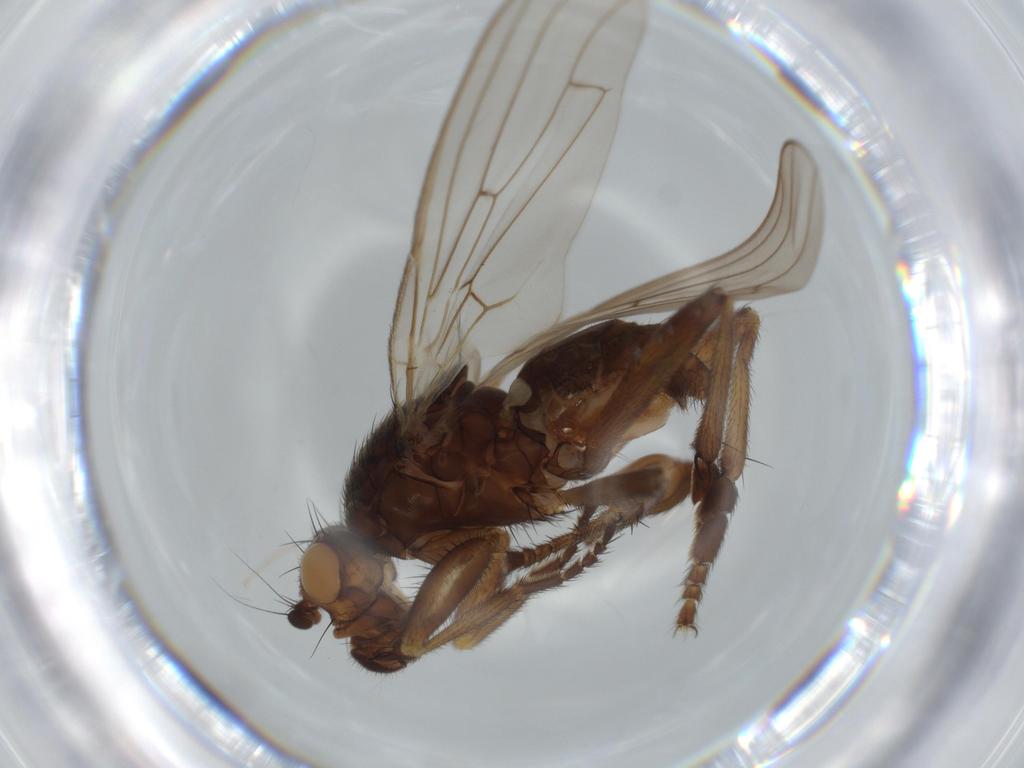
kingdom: Animalia
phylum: Arthropoda
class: Insecta
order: Diptera
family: Sphaeroceridae
